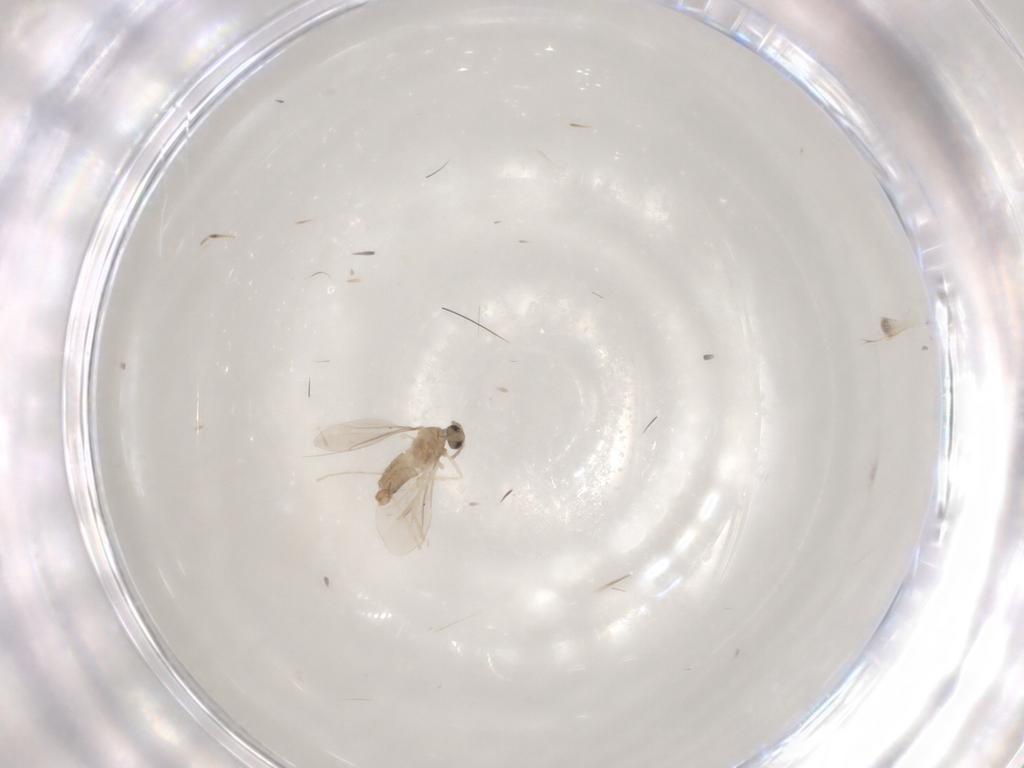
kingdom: Animalia
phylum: Arthropoda
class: Insecta
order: Diptera
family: Cecidomyiidae
